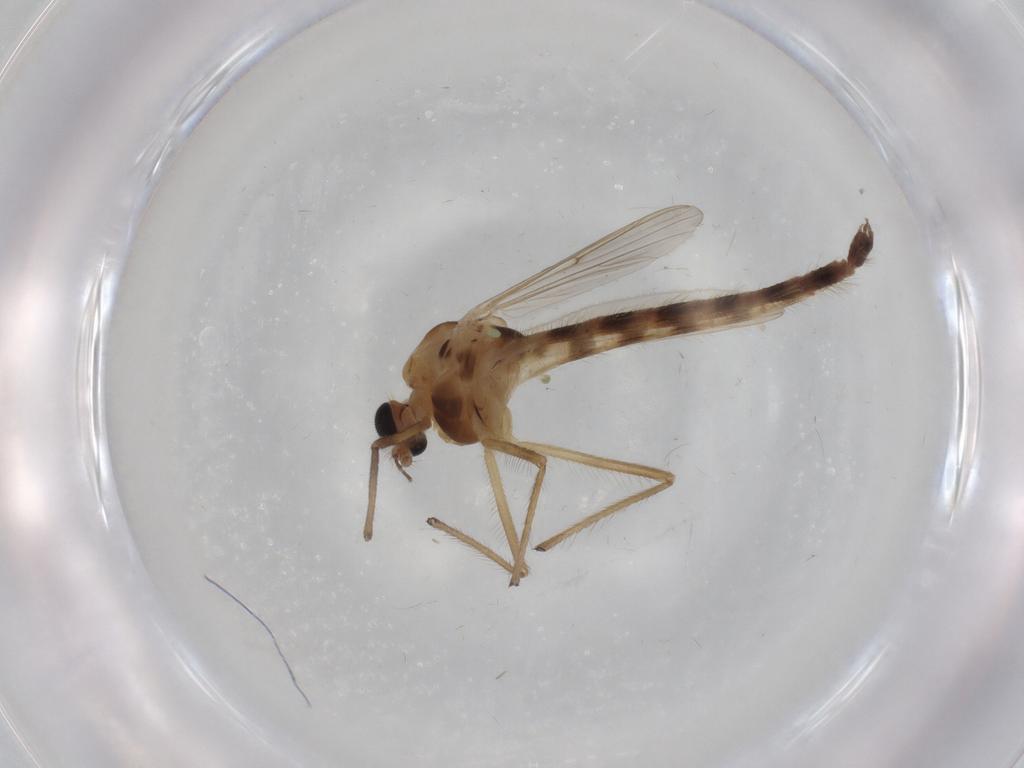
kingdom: Animalia
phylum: Arthropoda
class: Insecta
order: Diptera
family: Chironomidae
